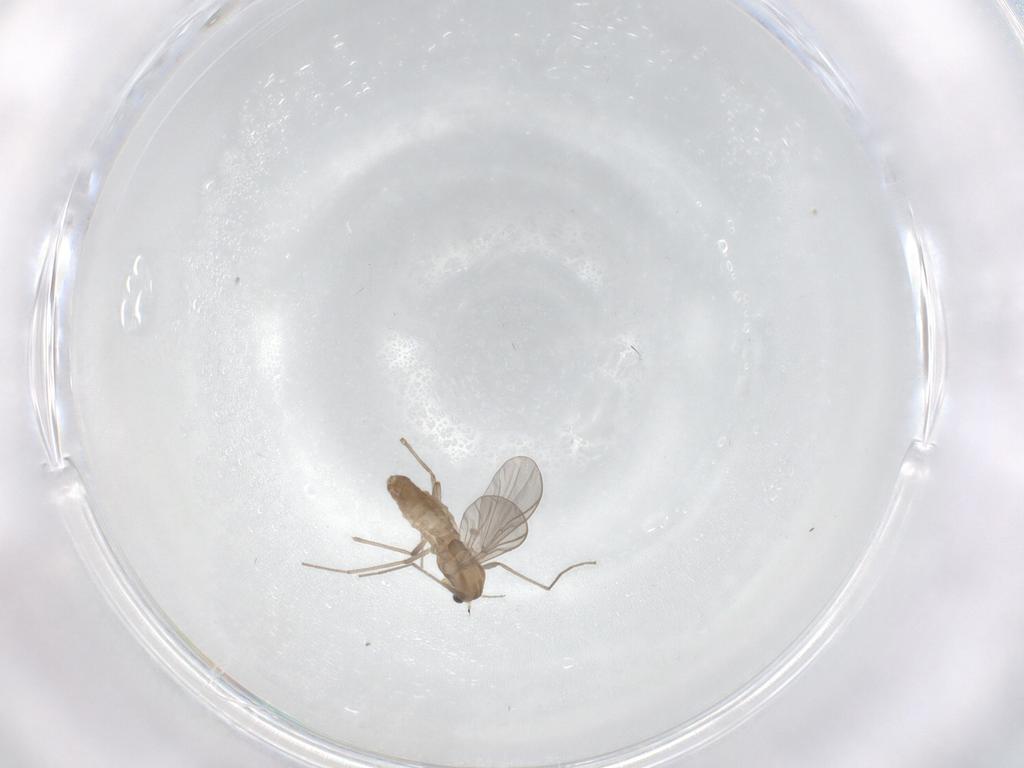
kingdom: Animalia
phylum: Arthropoda
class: Insecta
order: Diptera
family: Chironomidae
